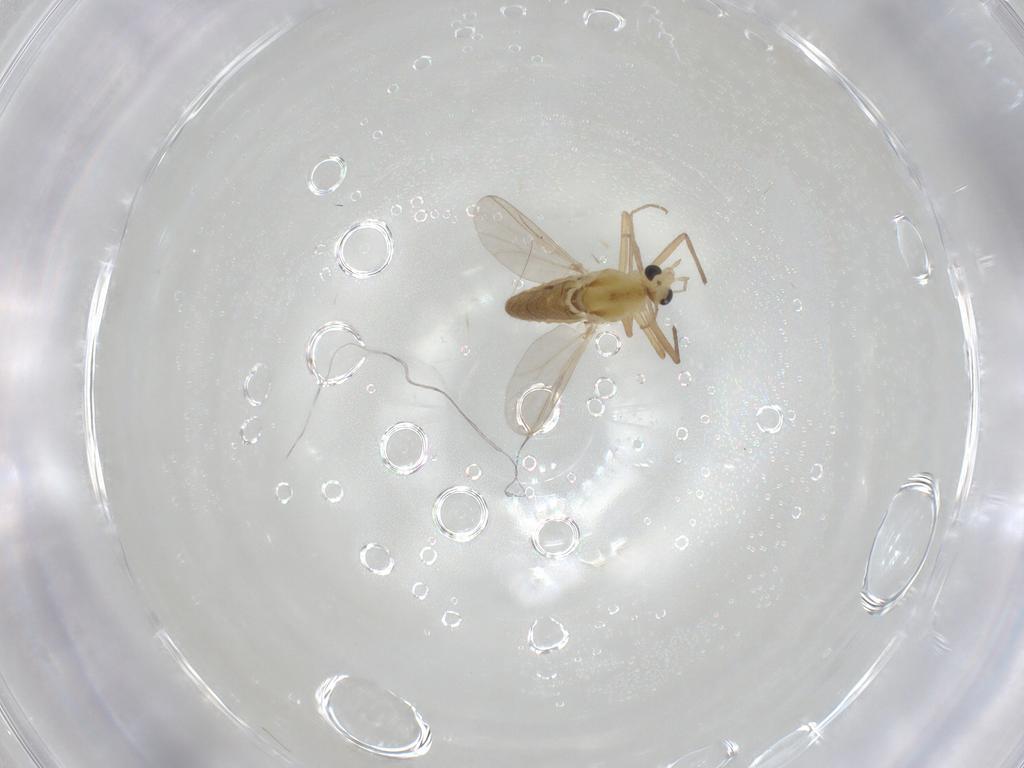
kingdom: Animalia
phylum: Arthropoda
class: Insecta
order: Diptera
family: Chironomidae
